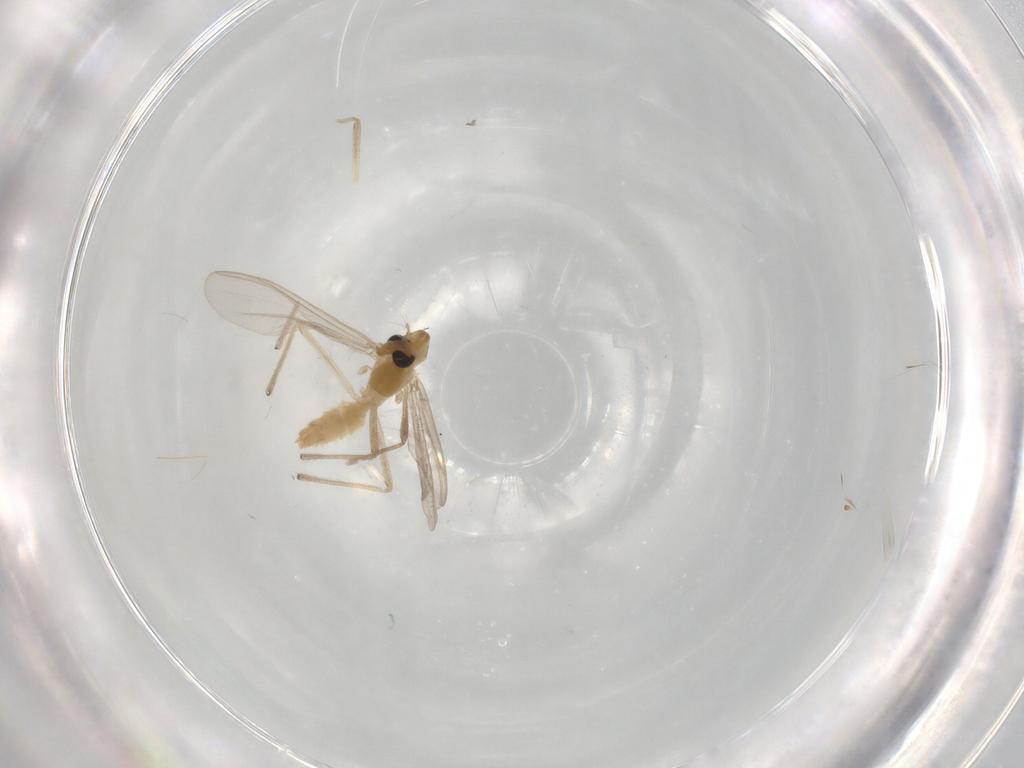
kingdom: Animalia
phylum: Arthropoda
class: Insecta
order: Diptera
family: Chironomidae
